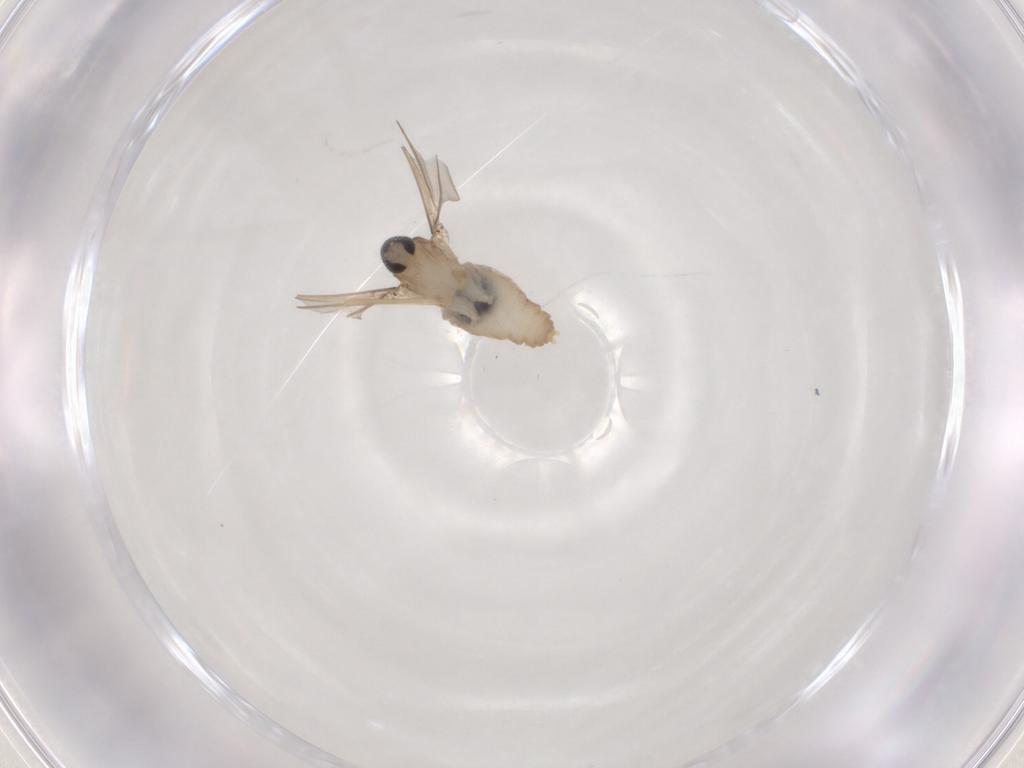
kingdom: Animalia
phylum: Arthropoda
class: Insecta
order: Diptera
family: Cecidomyiidae
